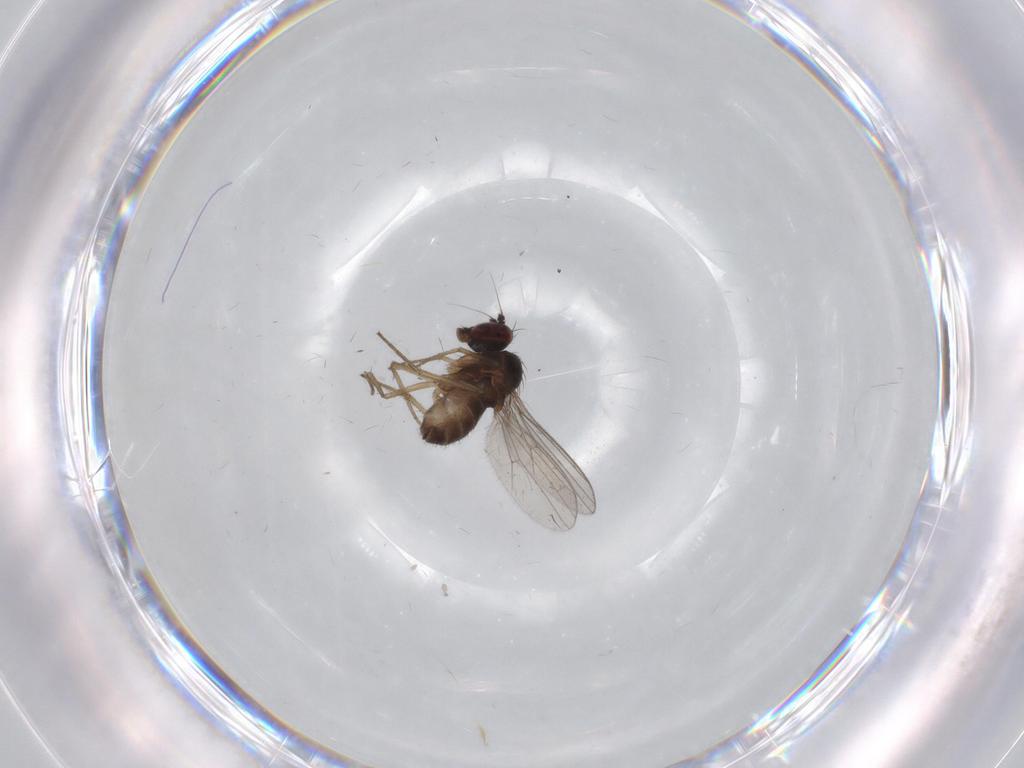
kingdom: Animalia
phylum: Arthropoda
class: Insecta
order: Diptera
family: Dolichopodidae
